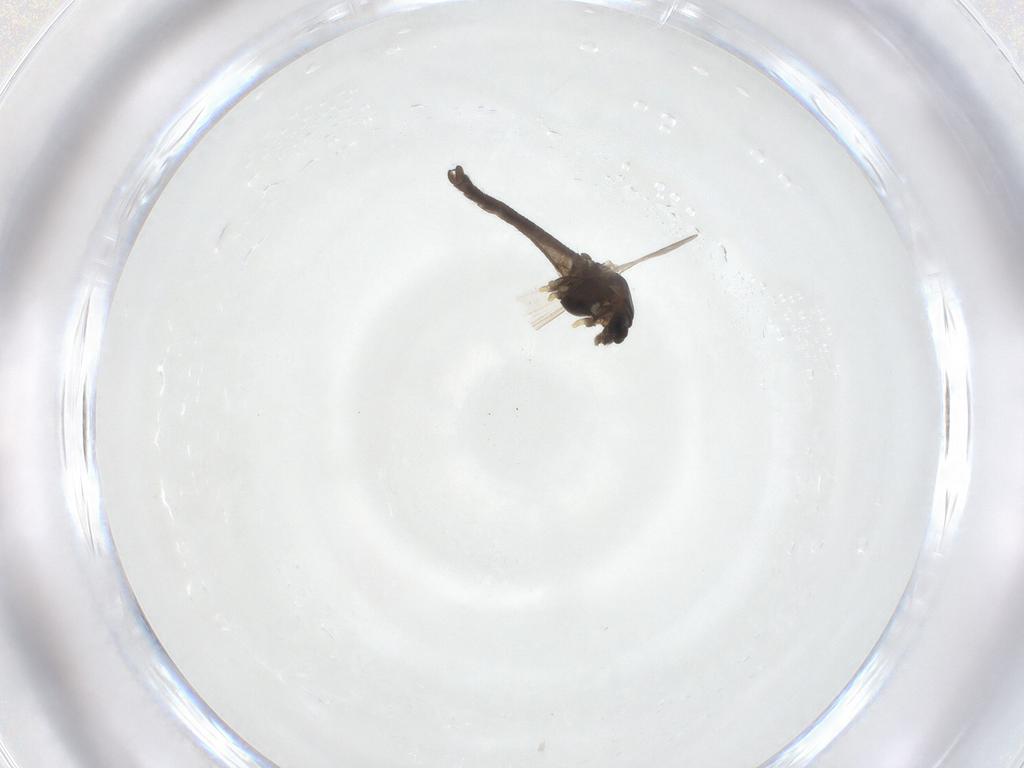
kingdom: Animalia
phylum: Arthropoda
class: Insecta
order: Diptera
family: Chironomidae
